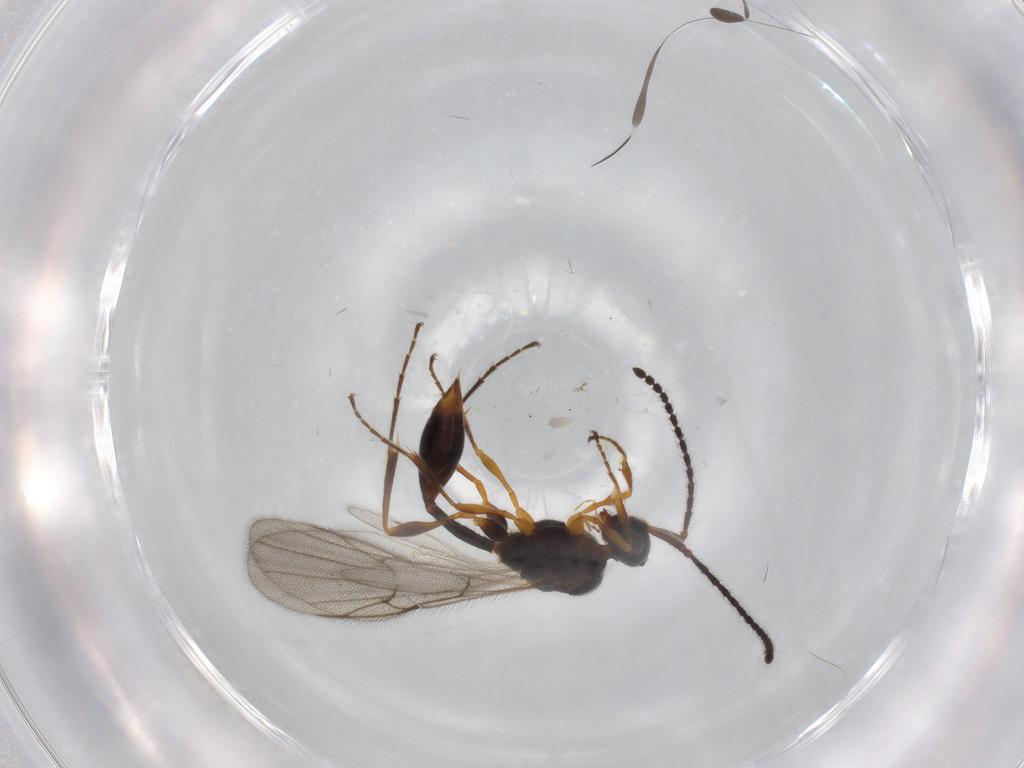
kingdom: Animalia
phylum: Arthropoda
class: Insecta
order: Hymenoptera
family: Diapriidae
